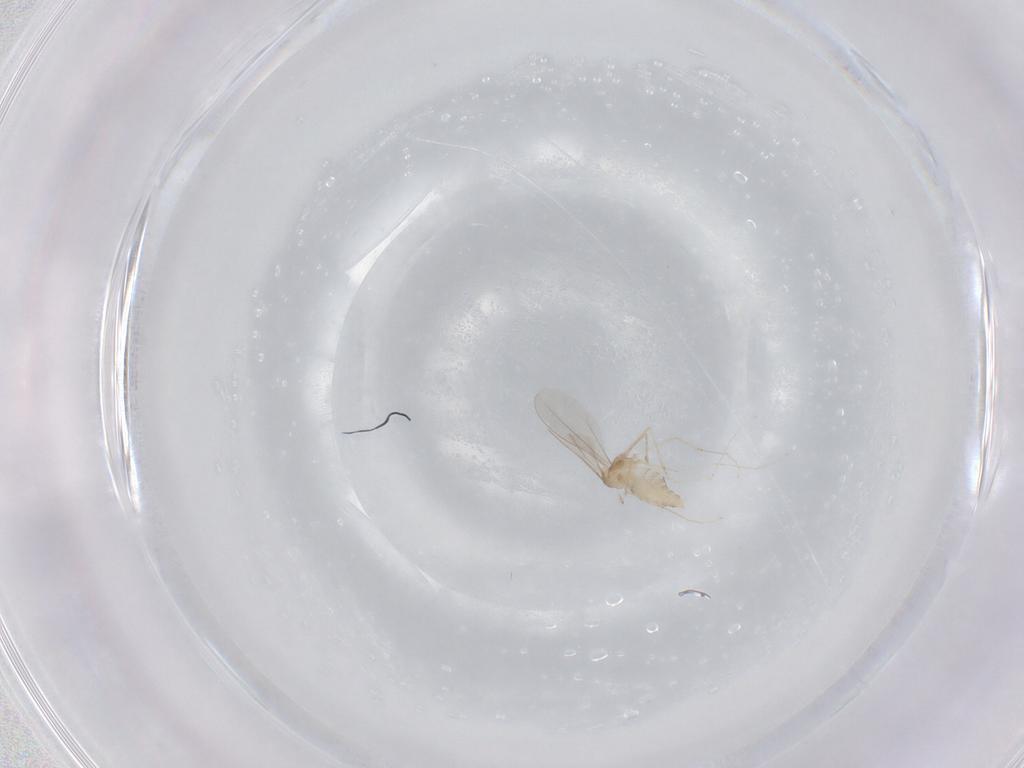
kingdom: Animalia
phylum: Arthropoda
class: Insecta
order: Diptera
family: Cecidomyiidae
